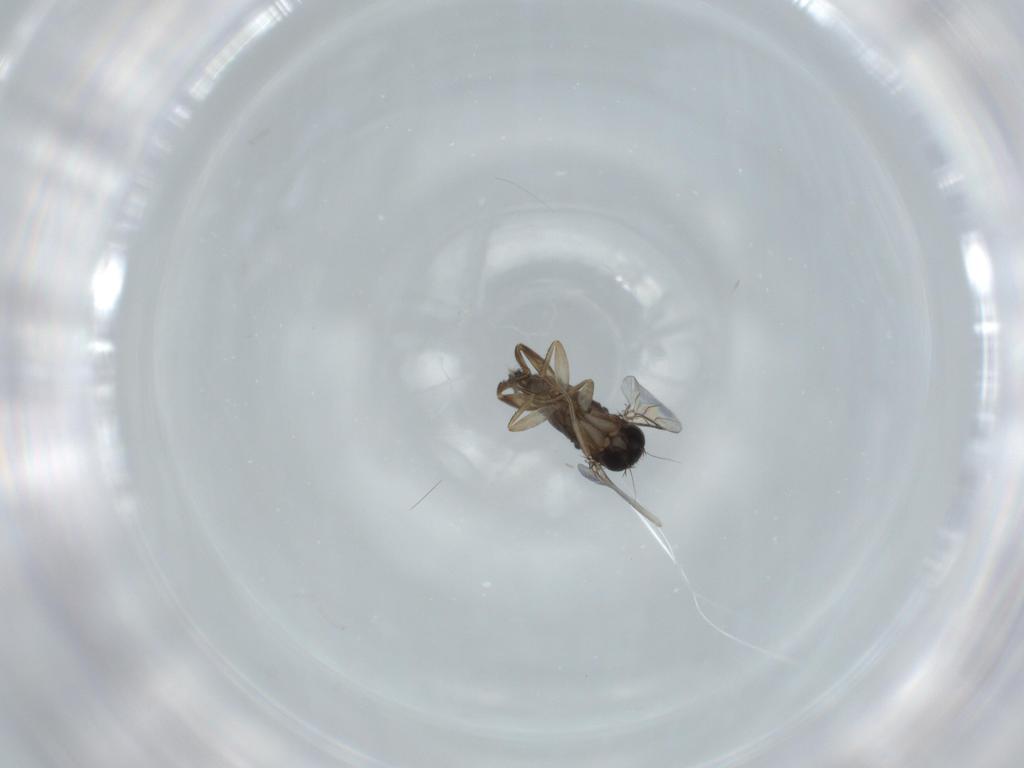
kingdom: Animalia
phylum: Arthropoda
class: Insecta
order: Diptera
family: Phoridae
